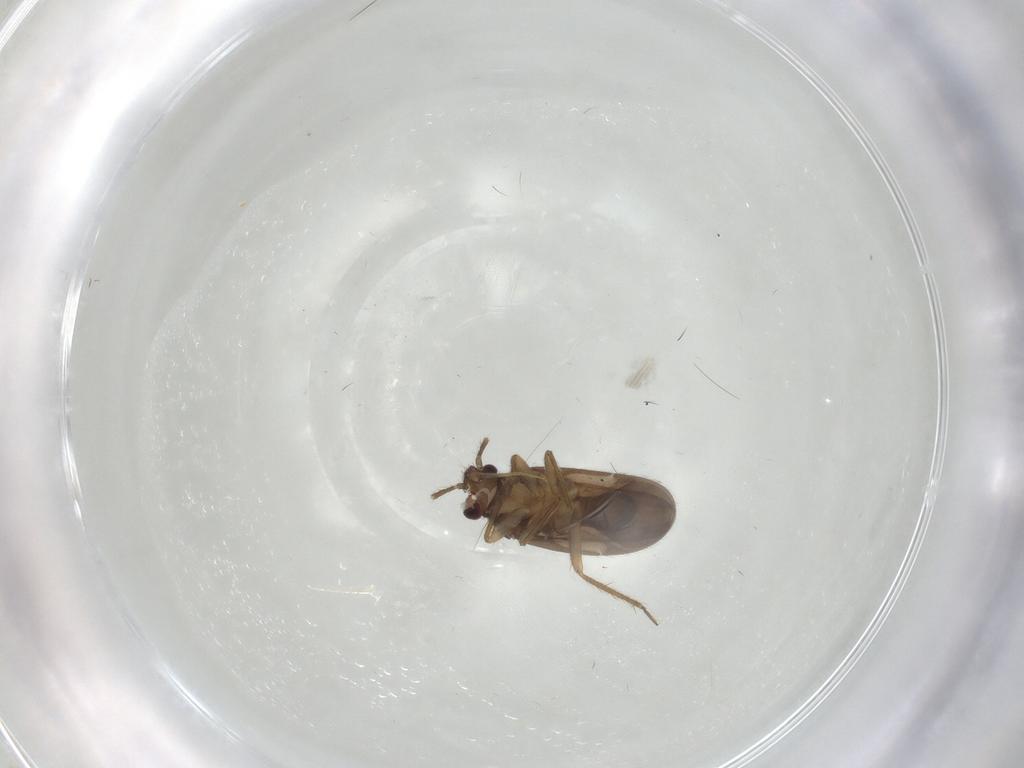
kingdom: Animalia
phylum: Arthropoda
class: Insecta
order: Hemiptera
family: Ceratocombidae
